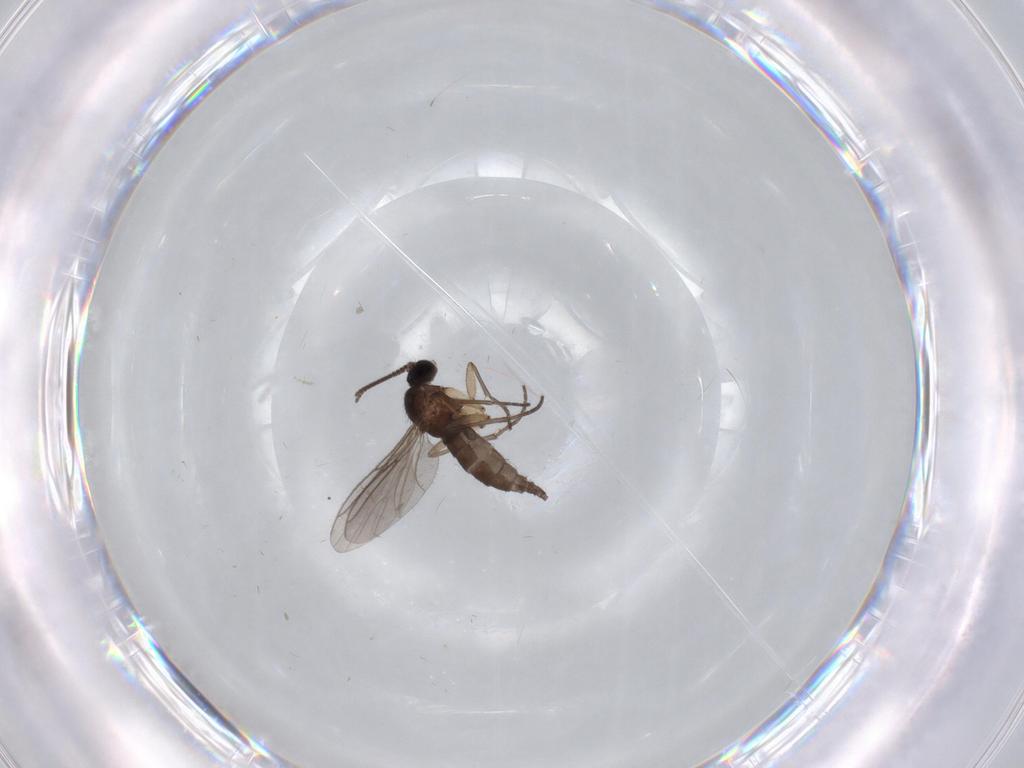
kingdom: Animalia
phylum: Arthropoda
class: Insecta
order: Diptera
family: Sciaridae
